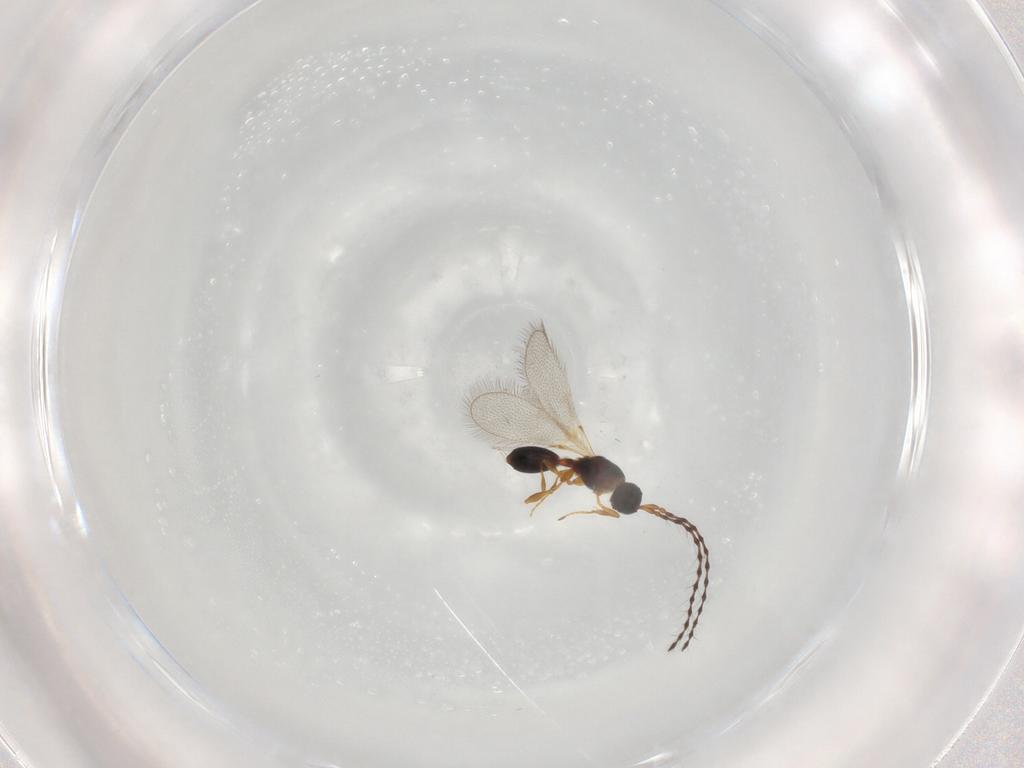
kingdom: Animalia
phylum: Arthropoda
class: Insecta
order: Hymenoptera
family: Diapriidae
